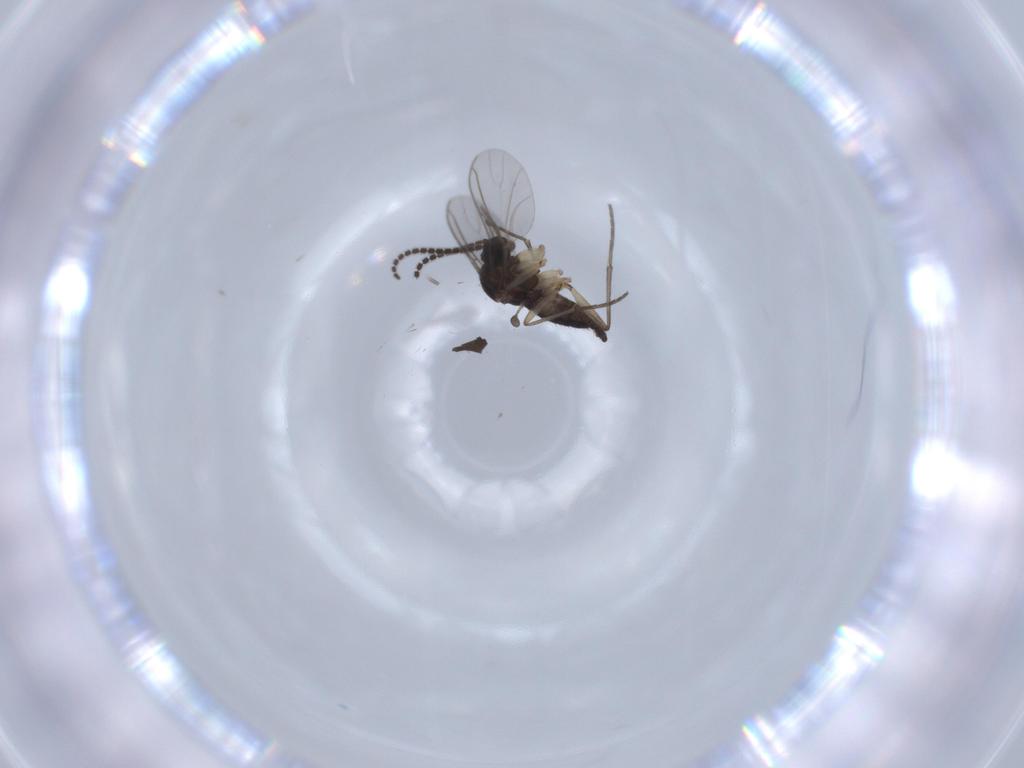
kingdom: Animalia
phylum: Arthropoda
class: Insecta
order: Diptera
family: Sciaridae
